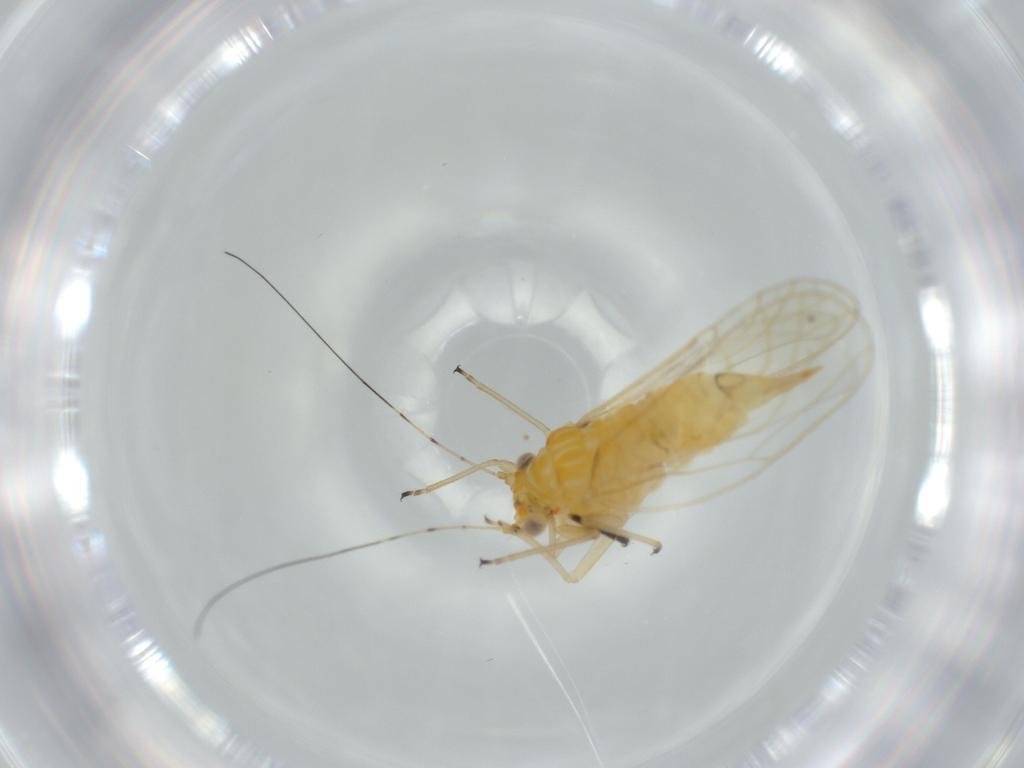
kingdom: Animalia
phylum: Arthropoda
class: Insecta
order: Hemiptera
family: Psyllidae
